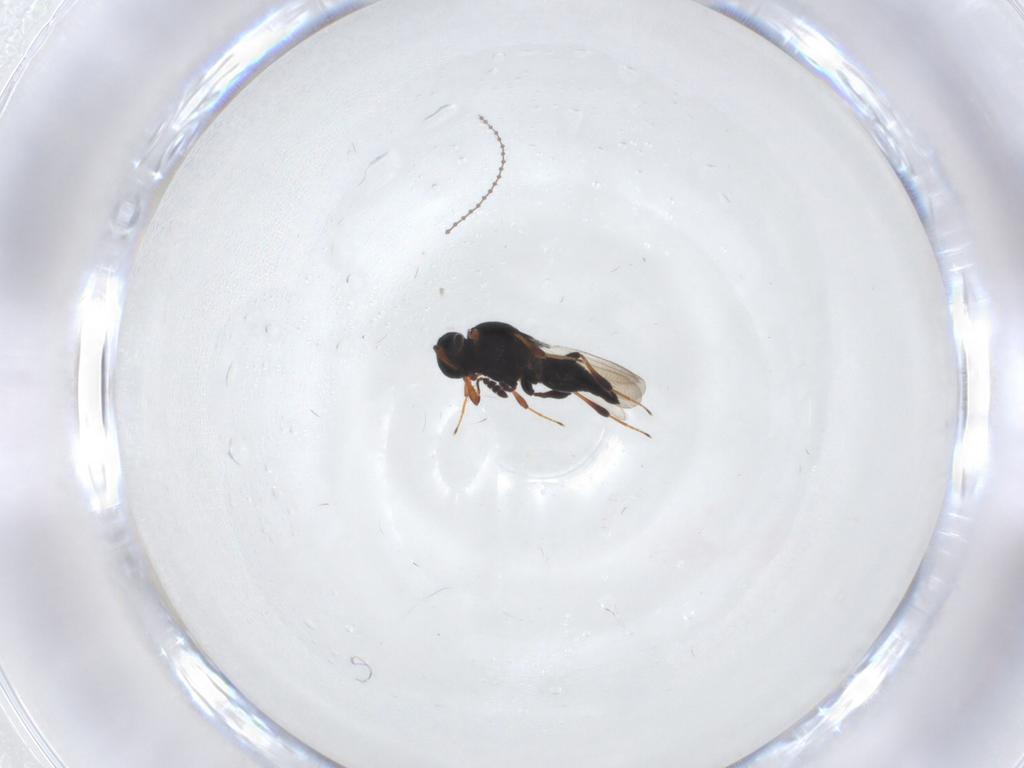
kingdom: Animalia
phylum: Arthropoda
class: Insecta
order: Hymenoptera
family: Platygastridae
